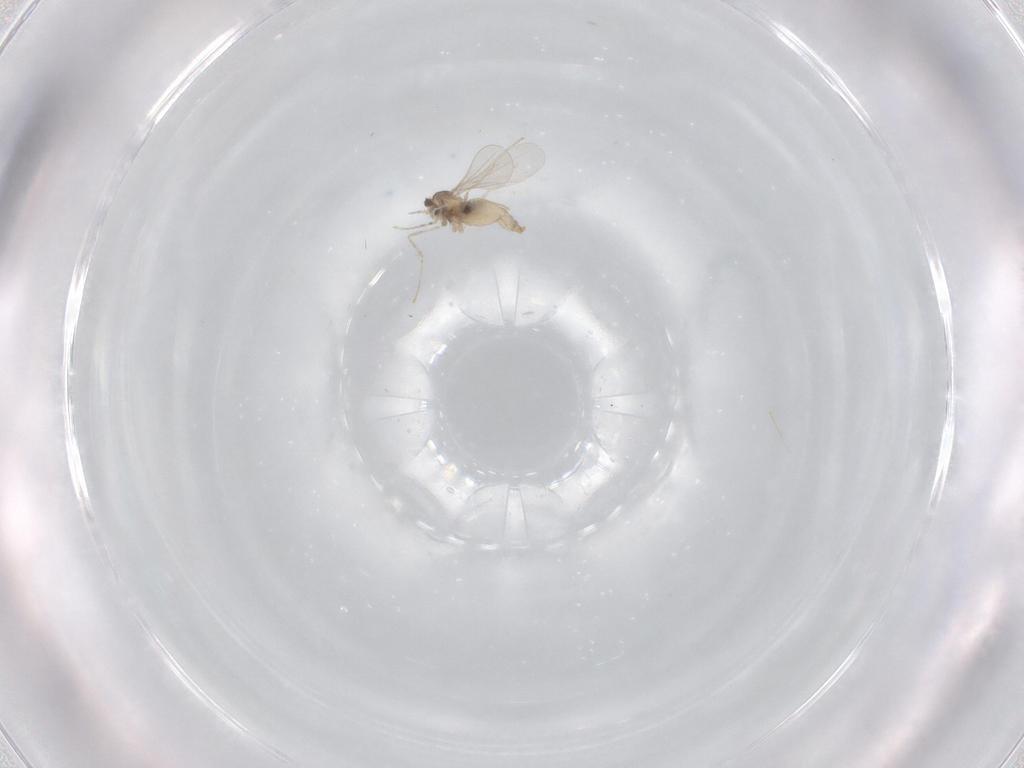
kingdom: Animalia
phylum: Arthropoda
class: Insecta
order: Diptera
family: Cecidomyiidae
